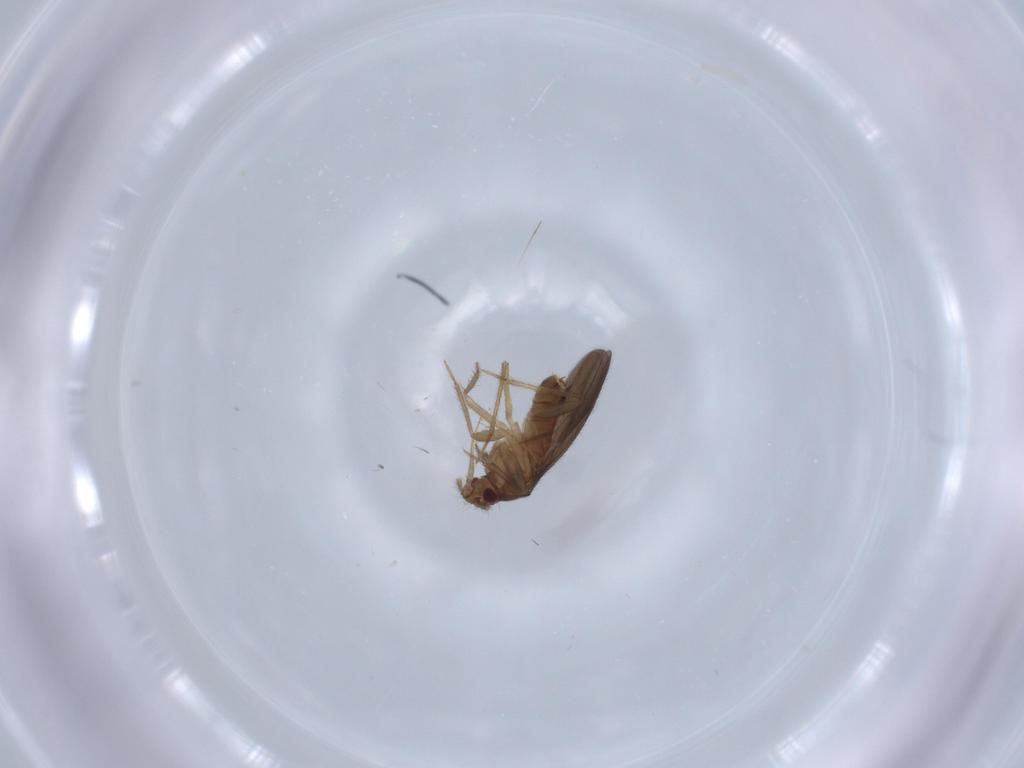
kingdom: Animalia
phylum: Arthropoda
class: Insecta
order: Hemiptera
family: Ceratocombidae
